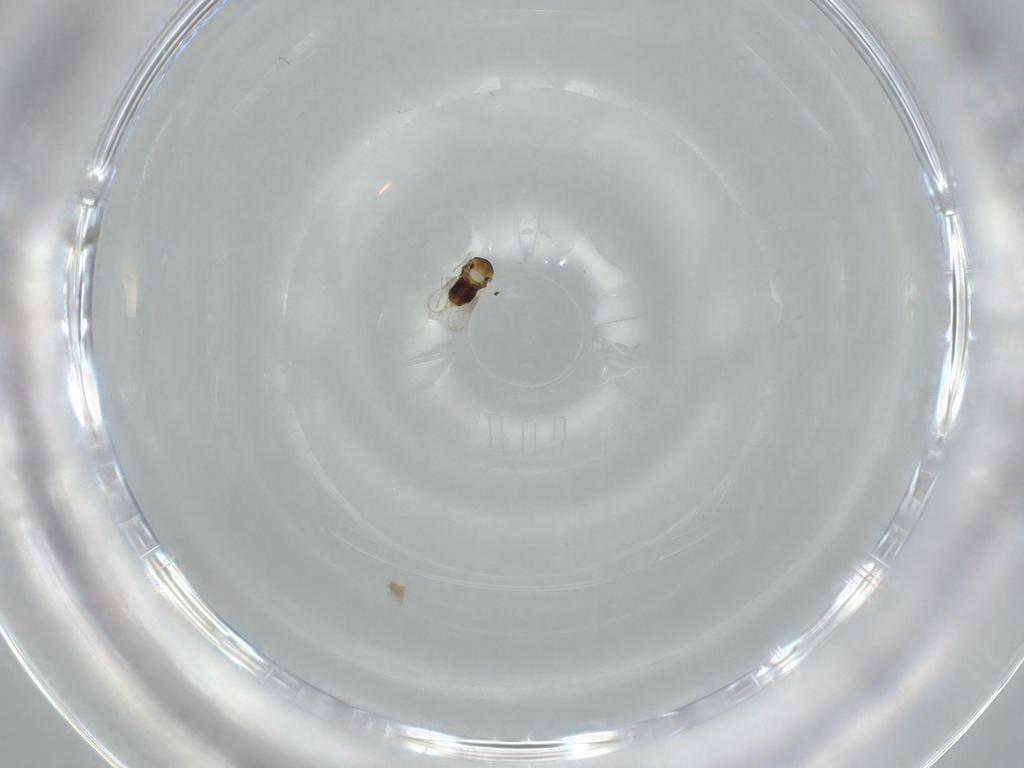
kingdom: Animalia
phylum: Arthropoda
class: Insecta
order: Hymenoptera
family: Aphelinidae
